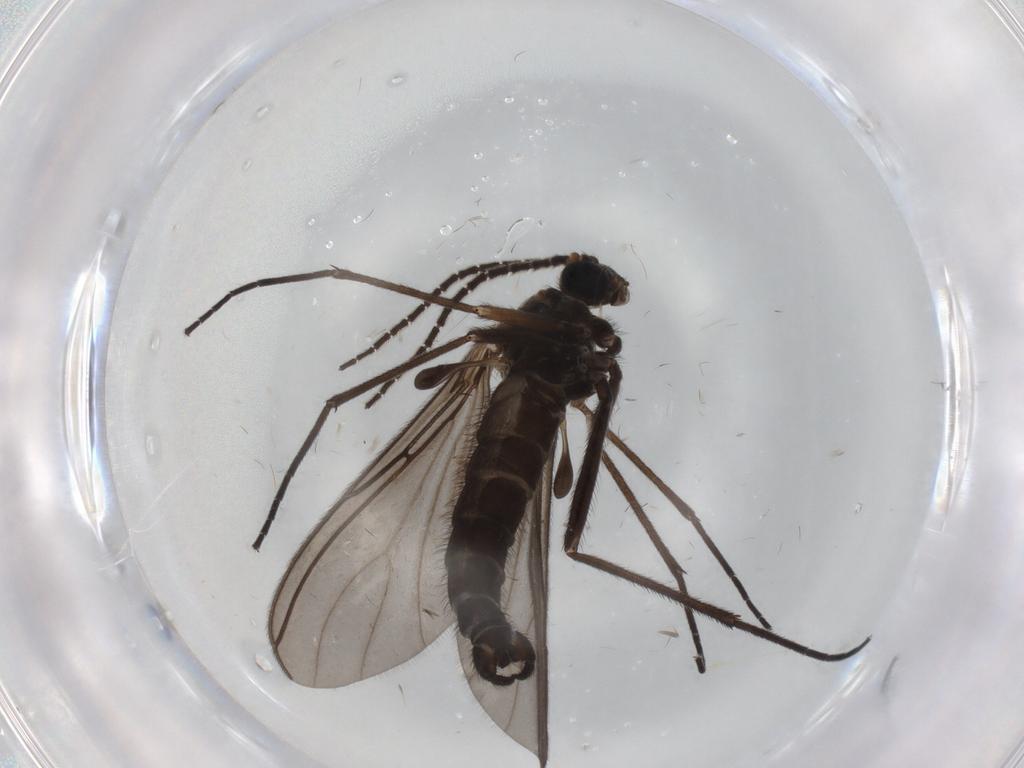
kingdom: Animalia
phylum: Arthropoda
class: Insecta
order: Diptera
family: Sciaridae
